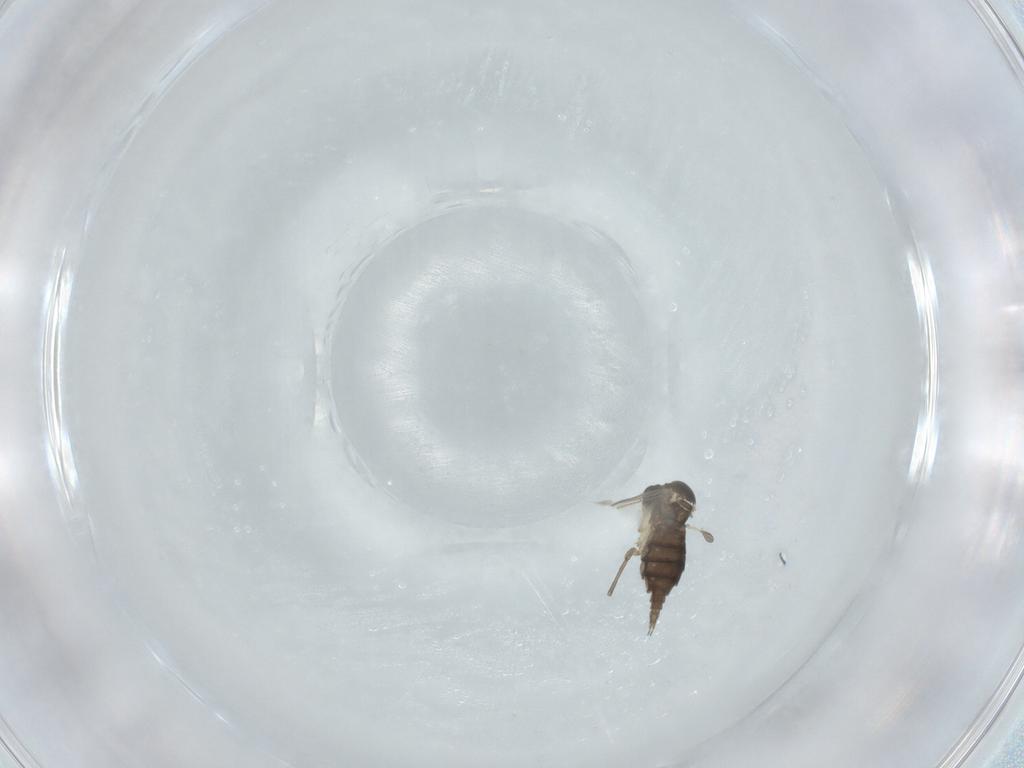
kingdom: Animalia
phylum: Arthropoda
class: Insecta
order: Diptera
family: Sciaridae
